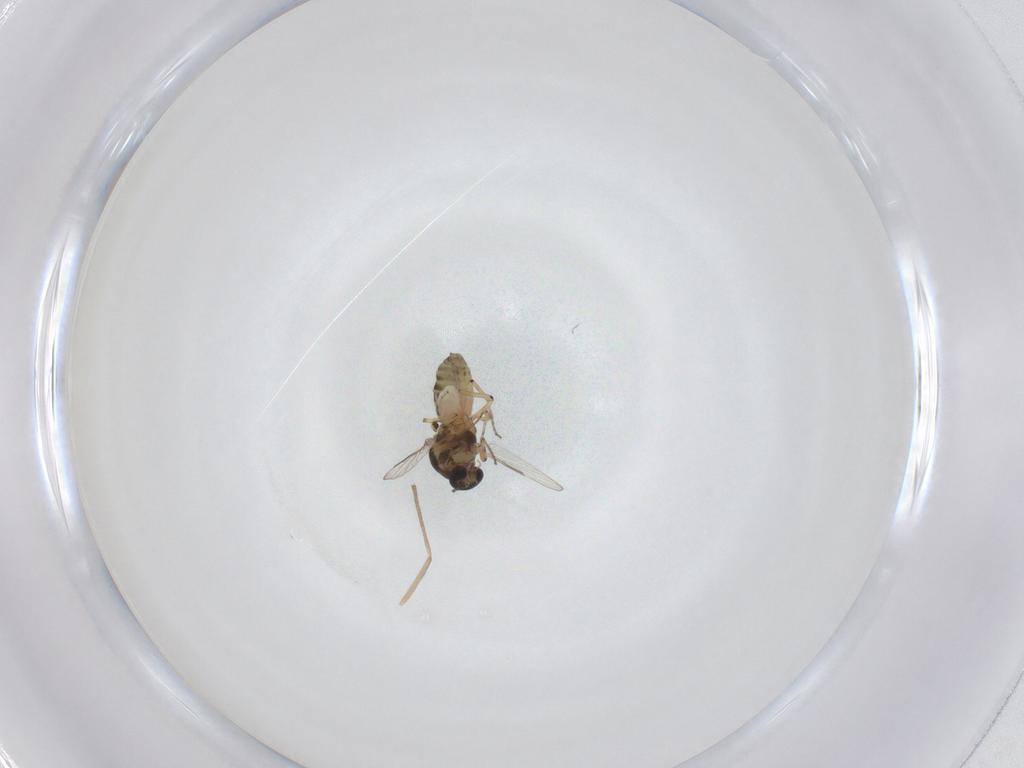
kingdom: Animalia
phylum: Arthropoda
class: Insecta
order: Diptera
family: Ceratopogonidae
